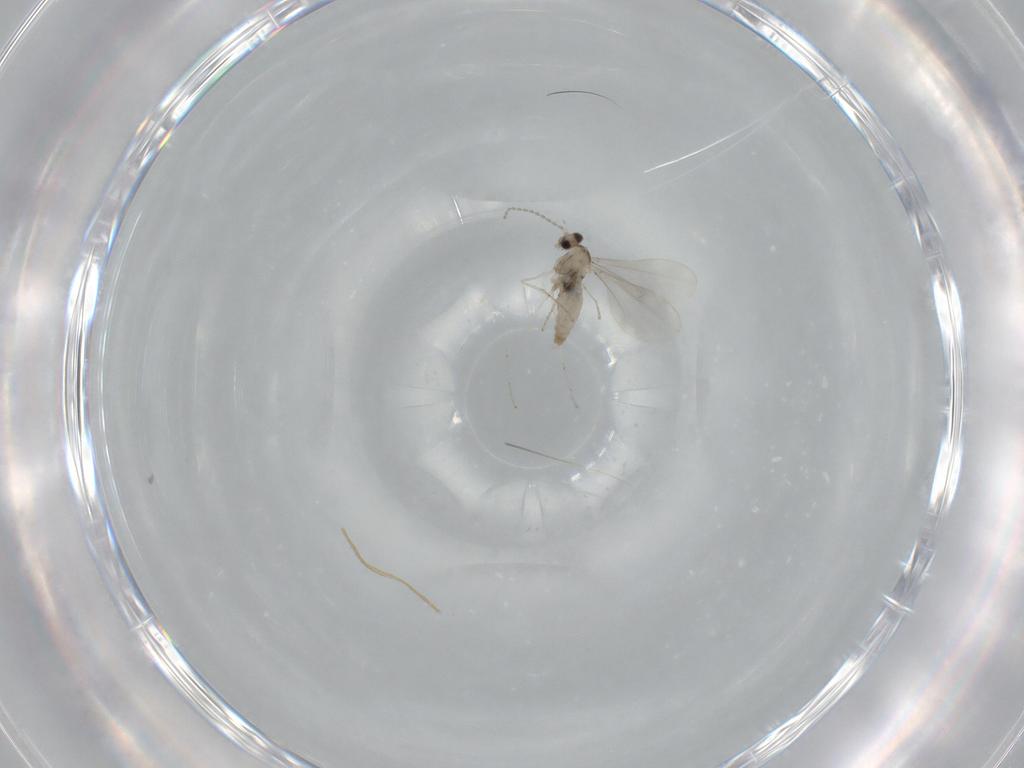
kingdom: Animalia
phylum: Arthropoda
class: Insecta
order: Diptera
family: Cecidomyiidae
